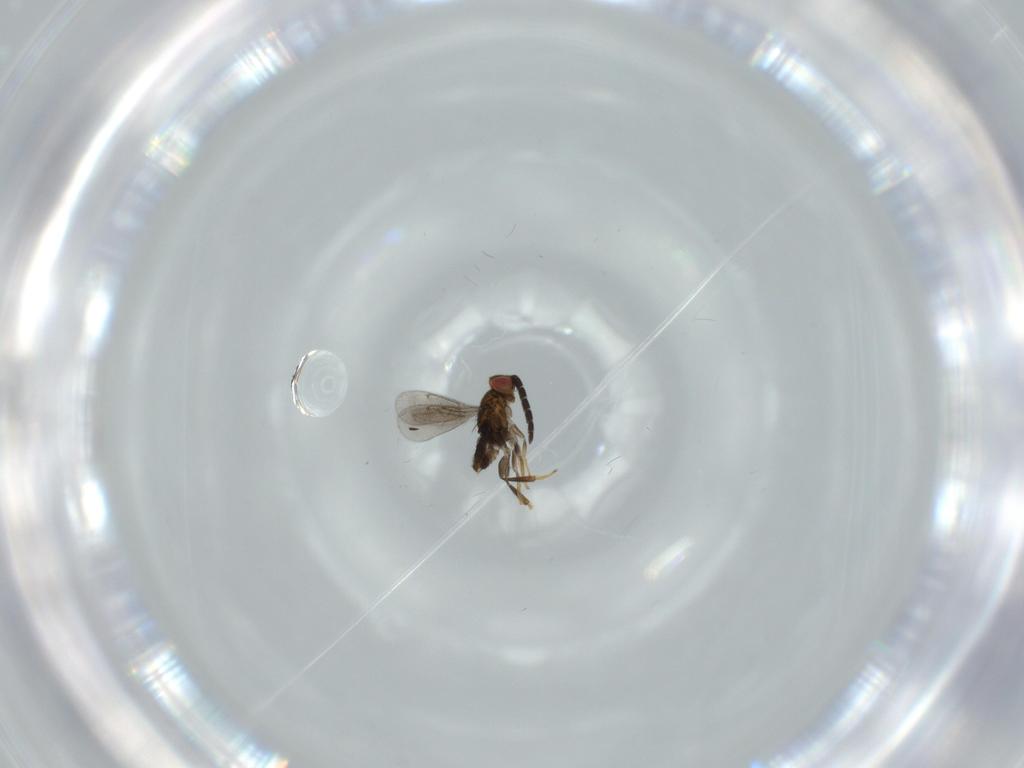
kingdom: Animalia
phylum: Arthropoda
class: Insecta
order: Hymenoptera
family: Aphelinidae
